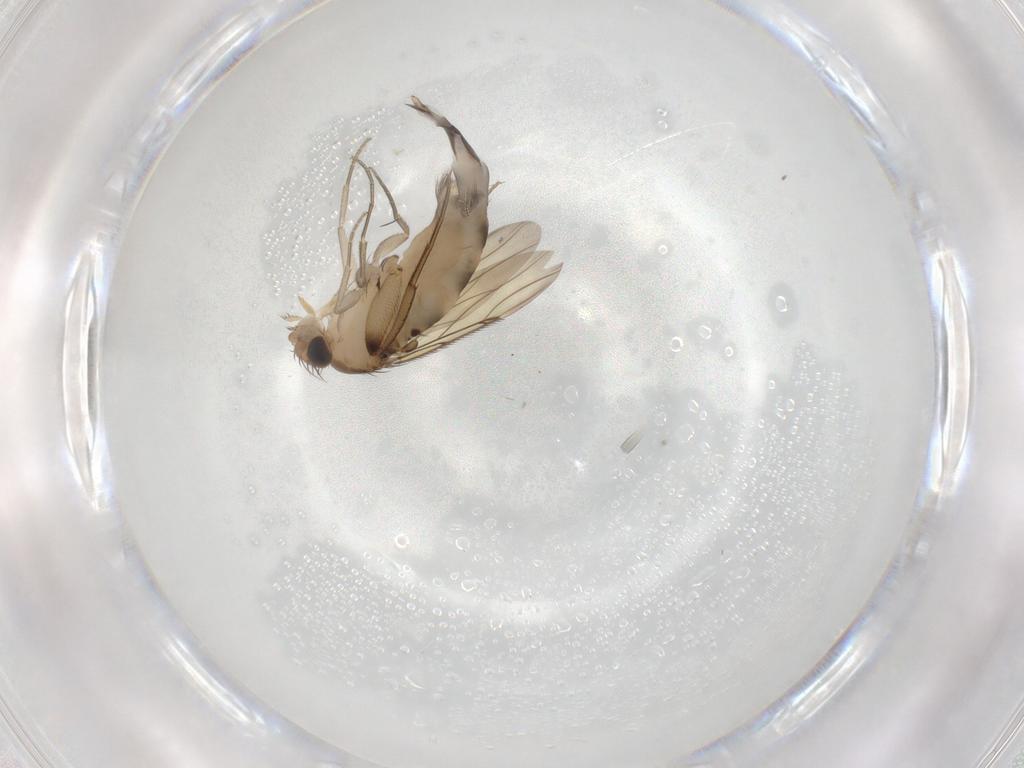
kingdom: Animalia
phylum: Arthropoda
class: Insecta
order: Diptera
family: Phoridae
